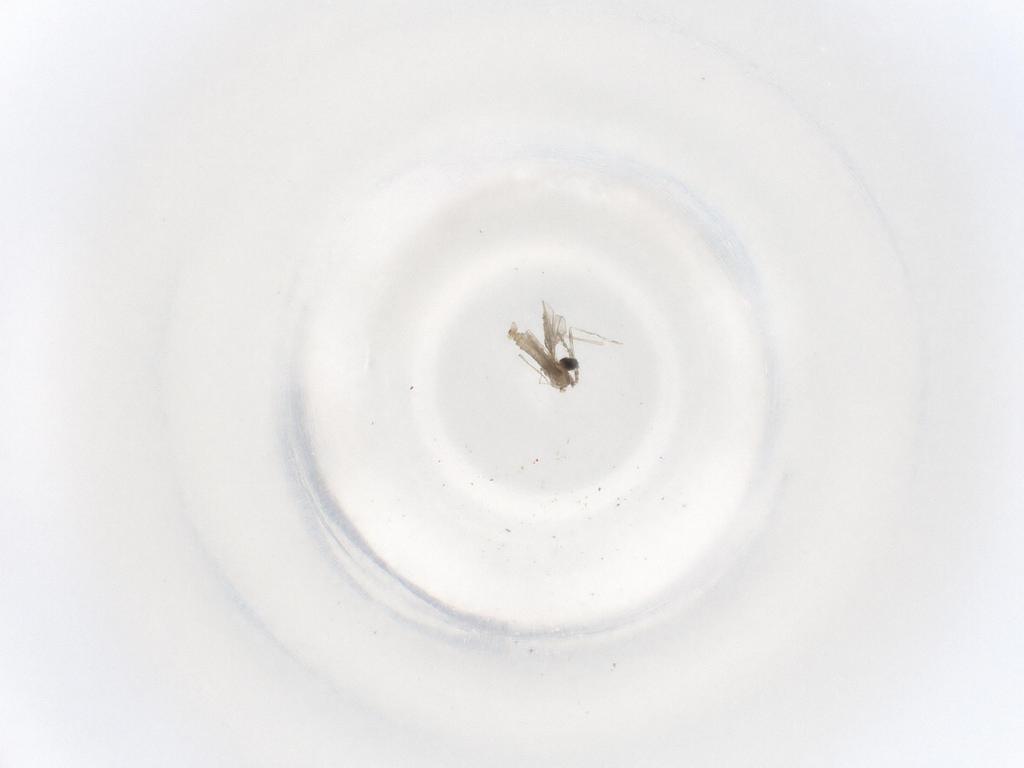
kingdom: Animalia
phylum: Arthropoda
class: Insecta
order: Diptera
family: Cecidomyiidae
